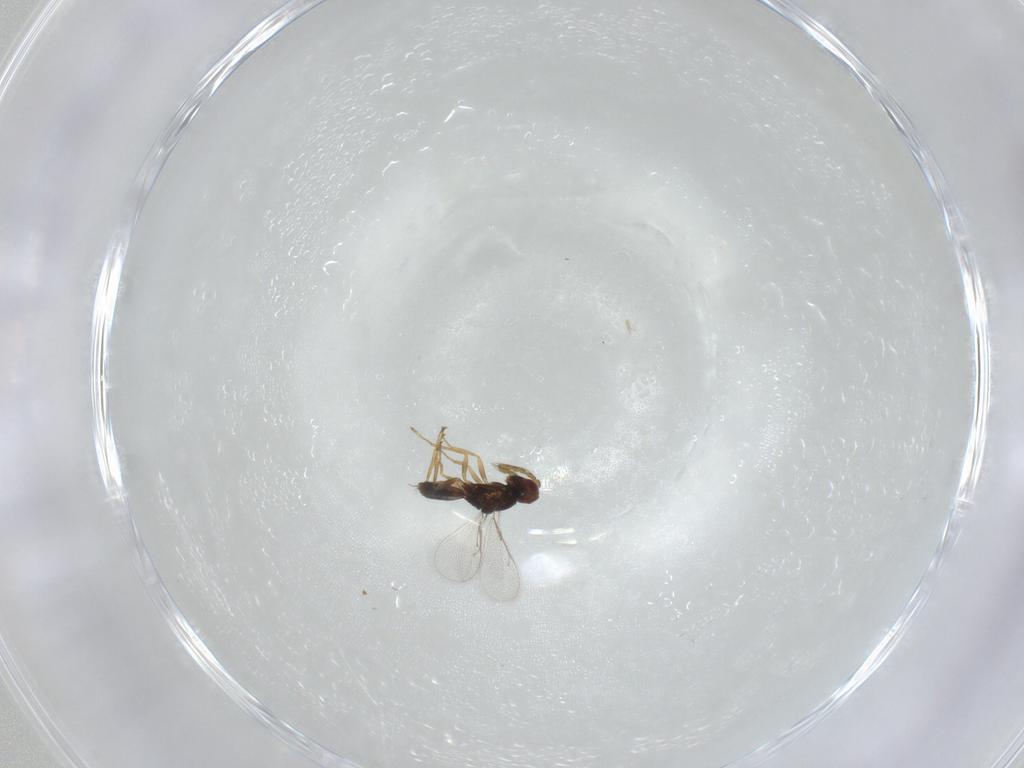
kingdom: Animalia
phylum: Arthropoda
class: Insecta
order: Hymenoptera
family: Eulophidae
